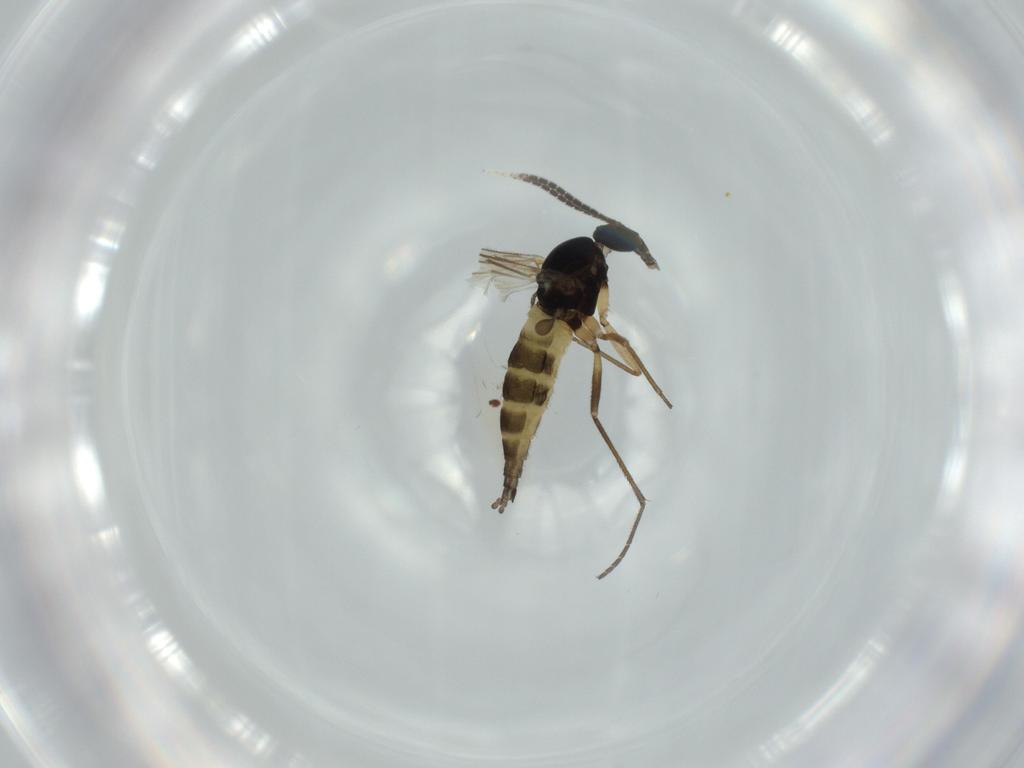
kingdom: Animalia
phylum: Arthropoda
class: Insecta
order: Diptera
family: Sciaridae
